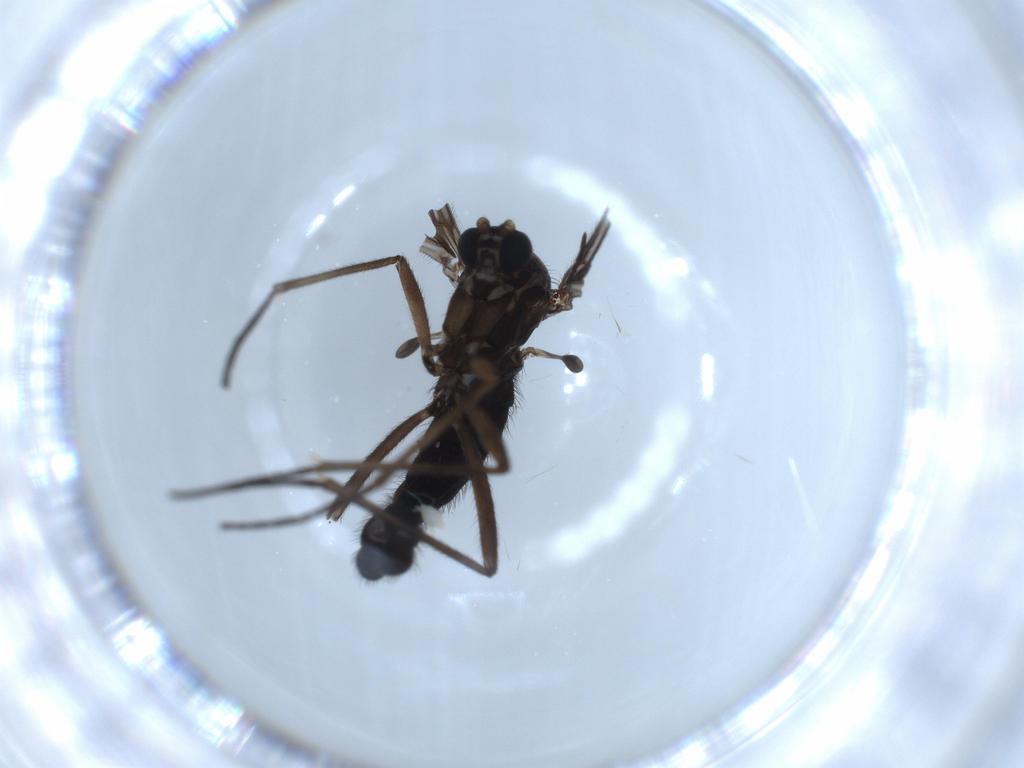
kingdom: Animalia
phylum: Arthropoda
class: Insecta
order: Diptera
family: Sciaridae
